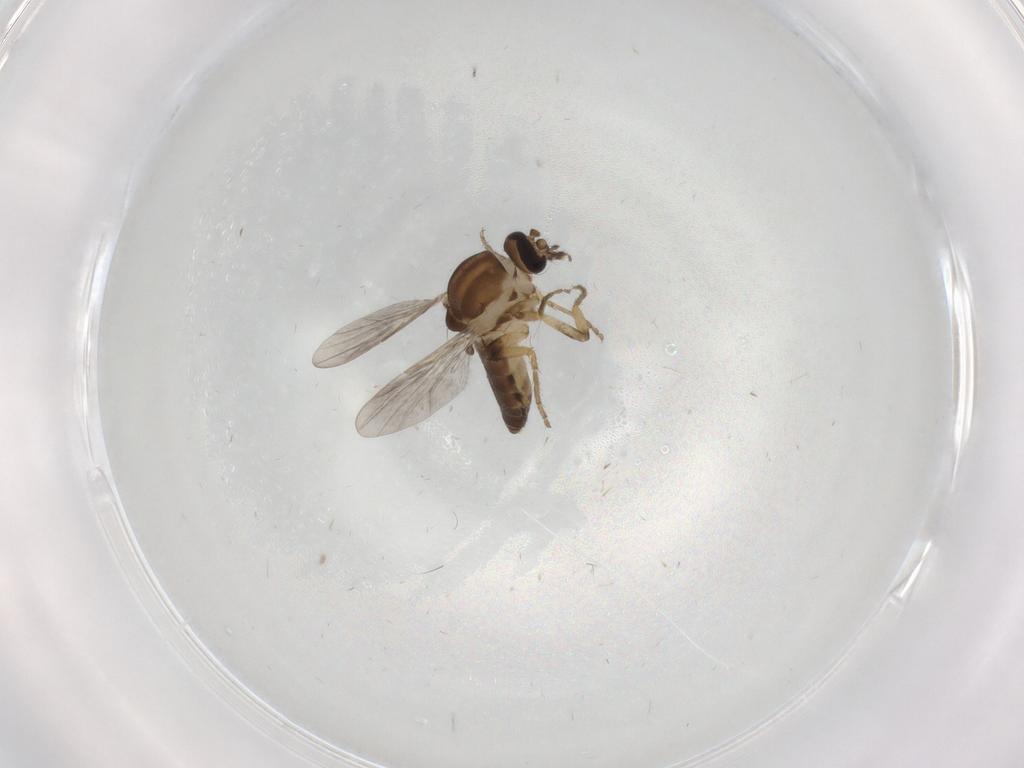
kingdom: Animalia
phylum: Arthropoda
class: Insecta
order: Diptera
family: Ceratopogonidae
